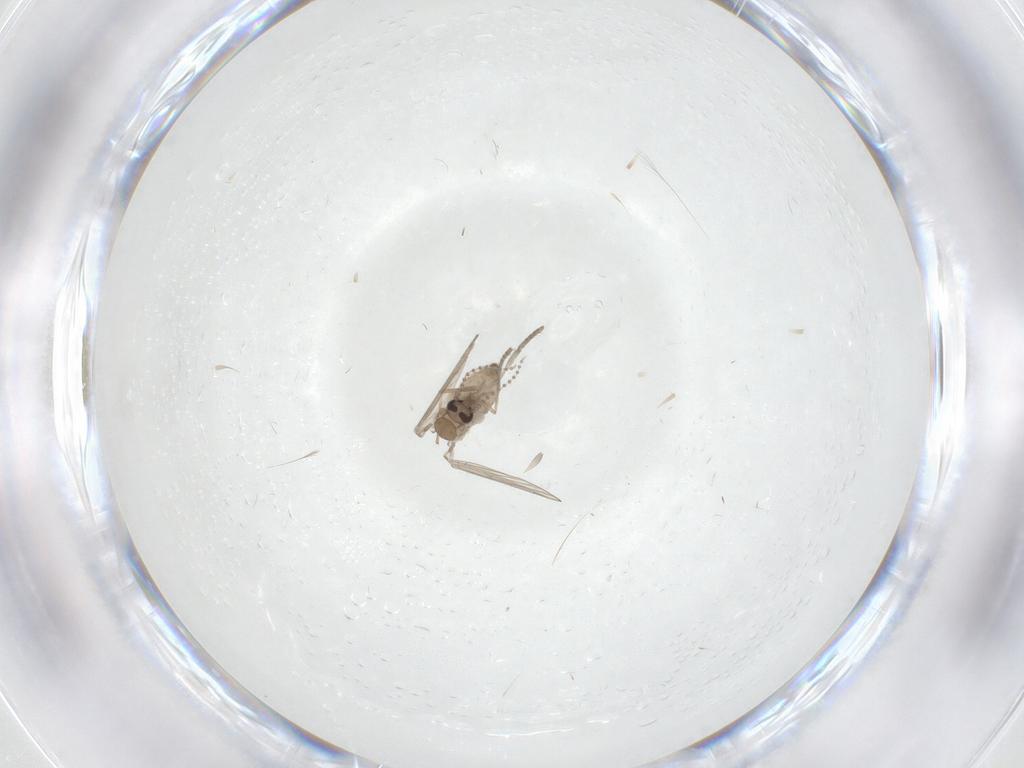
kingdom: Animalia
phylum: Arthropoda
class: Insecta
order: Diptera
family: Psychodidae
